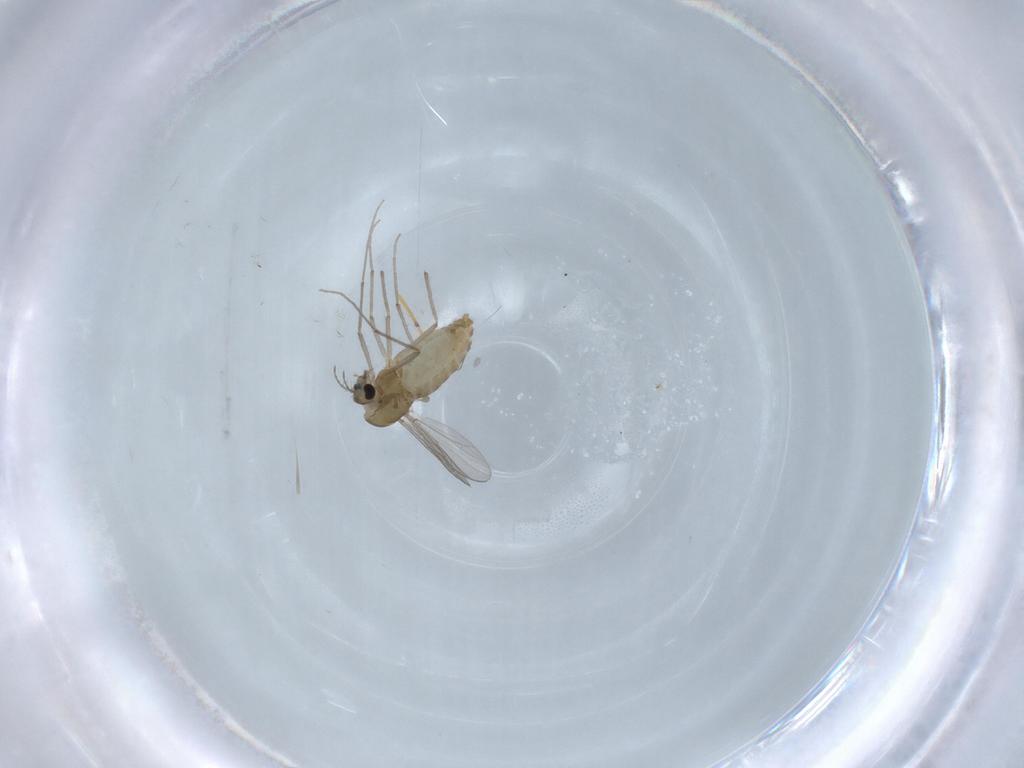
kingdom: Animalia
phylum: Arthropoda
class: Insecta
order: Diptera
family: Chironomidae
